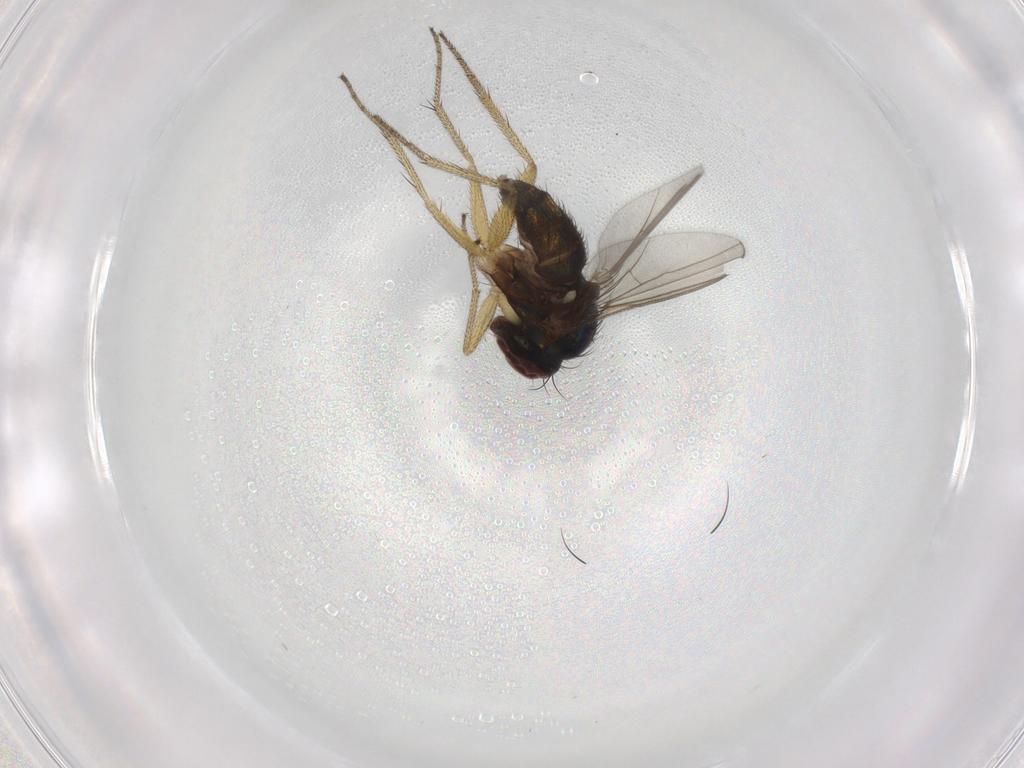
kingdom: Animalia
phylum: Arthropoda
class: Insecta
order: Diptera
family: Dolichopodidae
